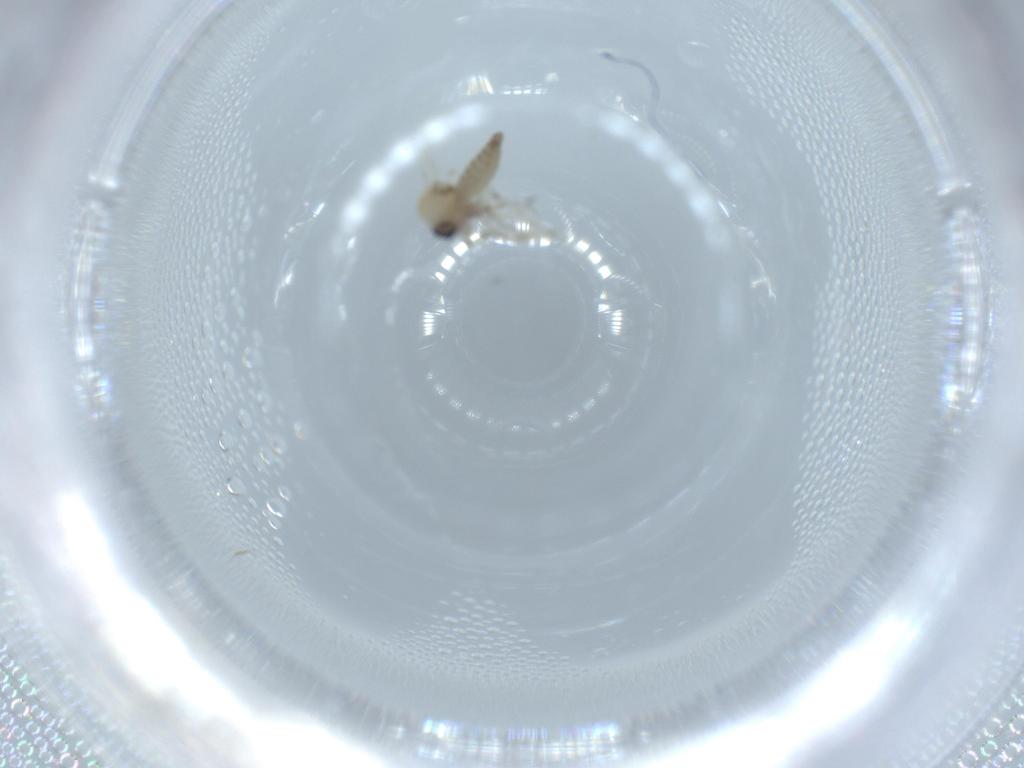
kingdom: Animalia
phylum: Arthropoda
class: Insecta
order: Diptera
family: Ceratopogonidae
